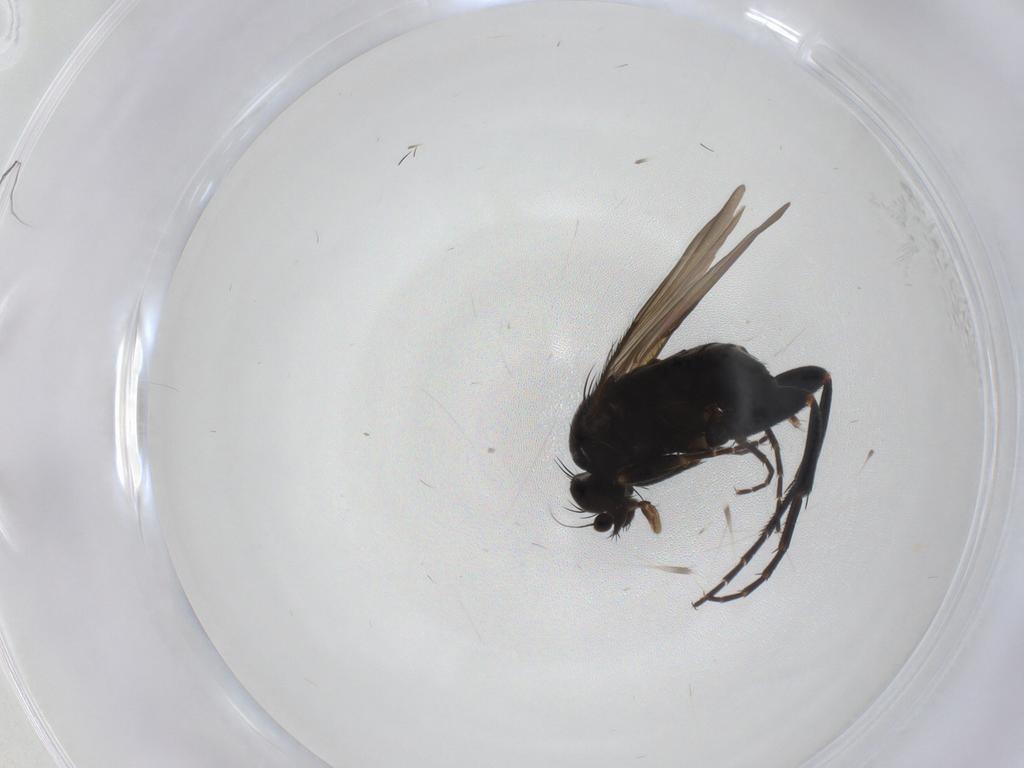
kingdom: Animalia
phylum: Arthropoda
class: Insecta
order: Diptera
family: Phoridae
